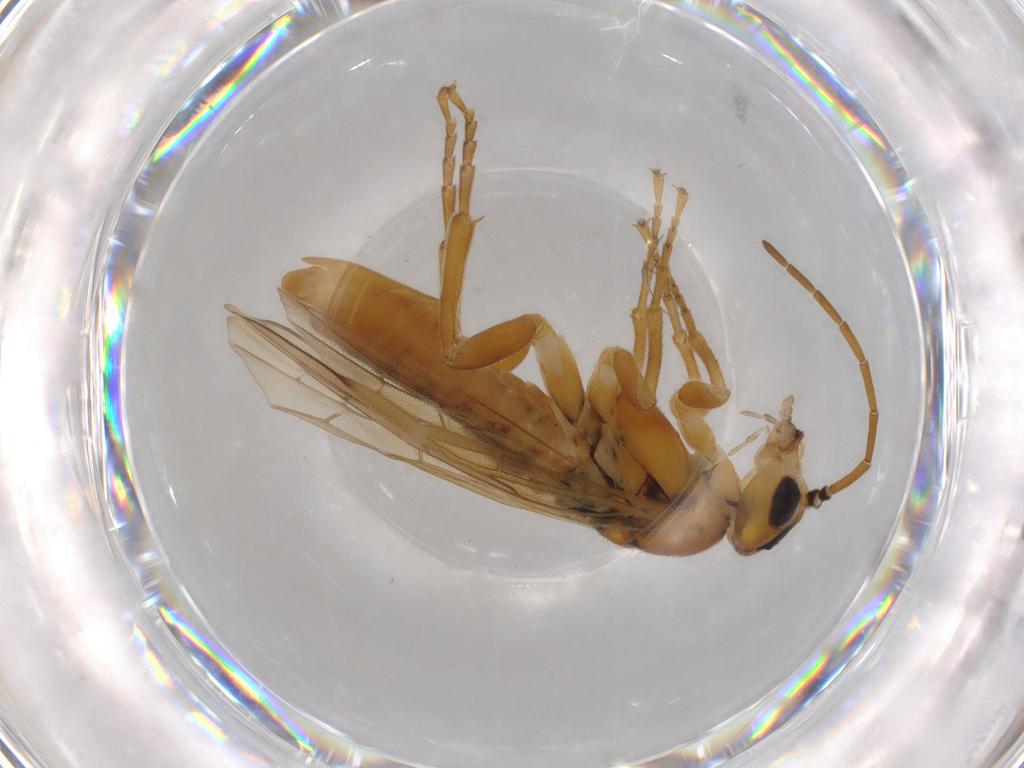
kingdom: Animalia
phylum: Arthropoda
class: Insecta
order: Hymenoptera
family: Tenthredinidae
